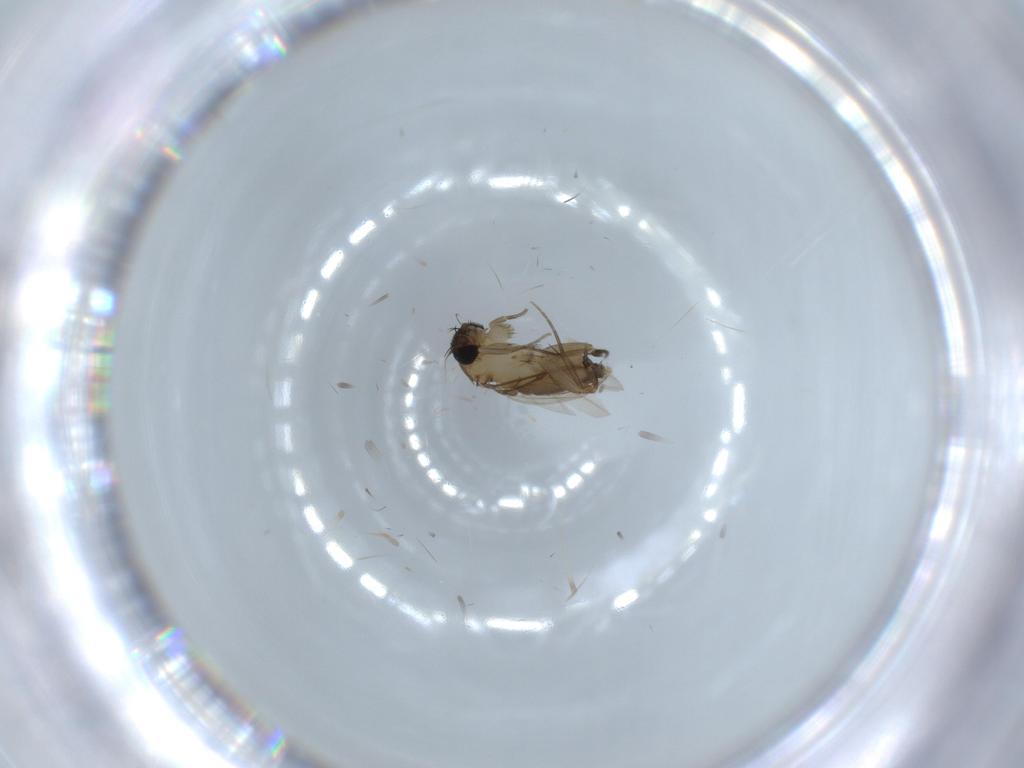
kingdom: Animalia
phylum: Arthropoda
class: Insecta
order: Diptera
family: Phoridae
